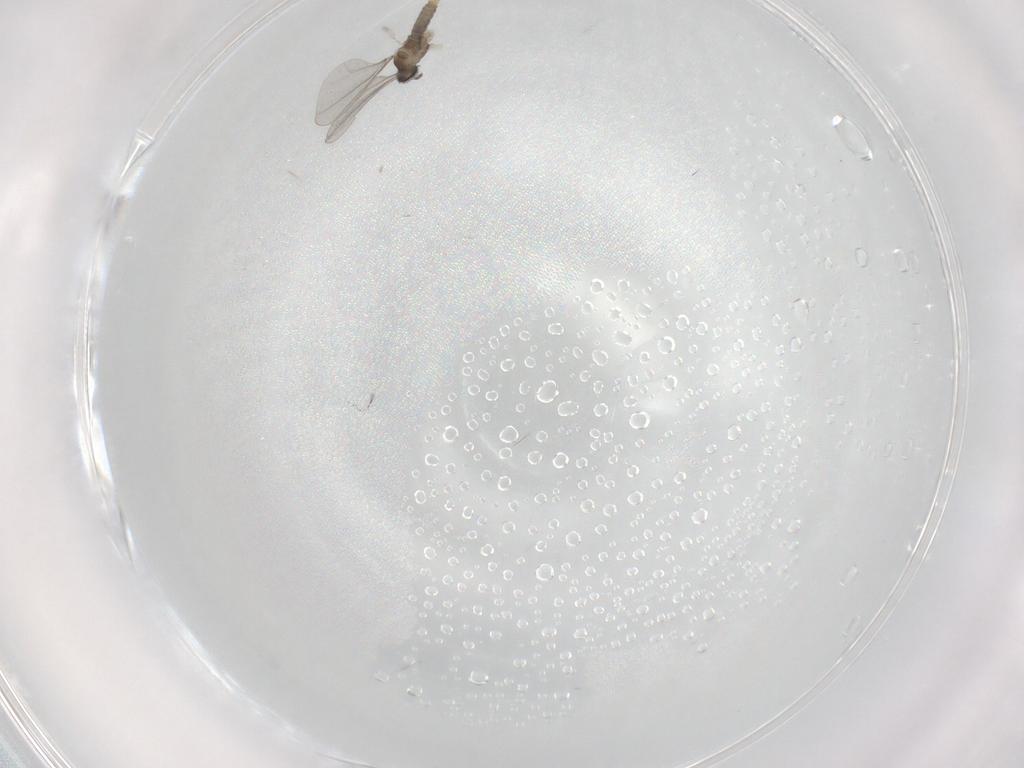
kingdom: Animalia
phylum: Arthropoda
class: Insecta
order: Diptera
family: Cecidomyiidae
